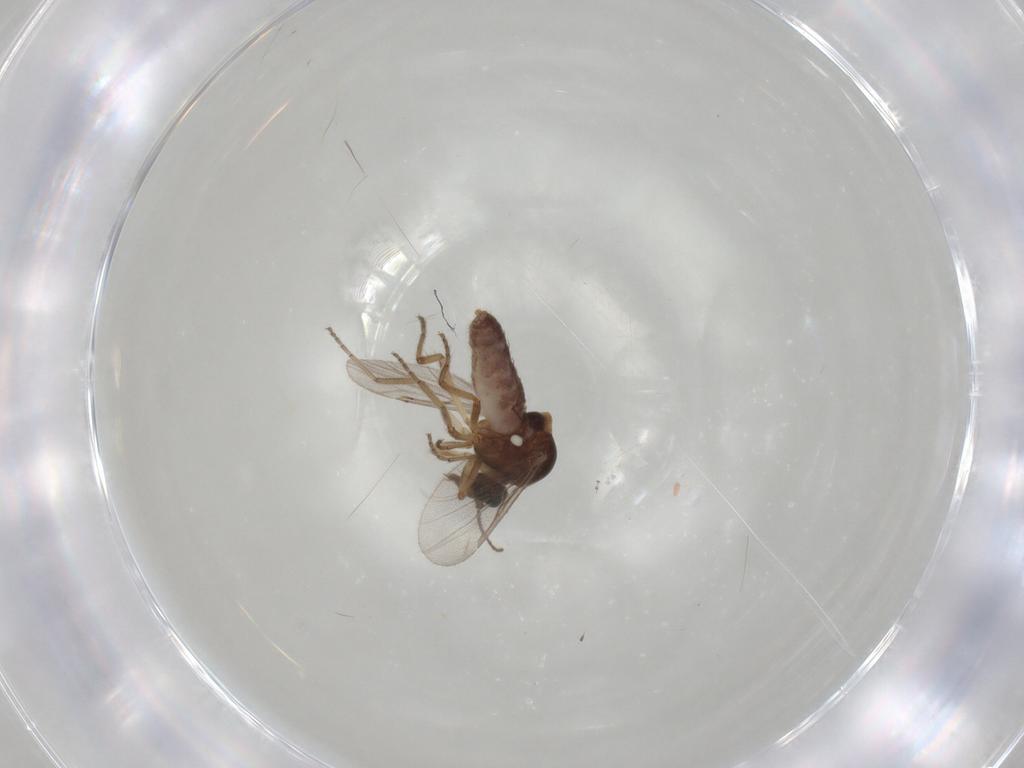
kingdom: Animalia
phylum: Arthropoda
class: Insecta
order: Diptera
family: Ceratopogonidae
